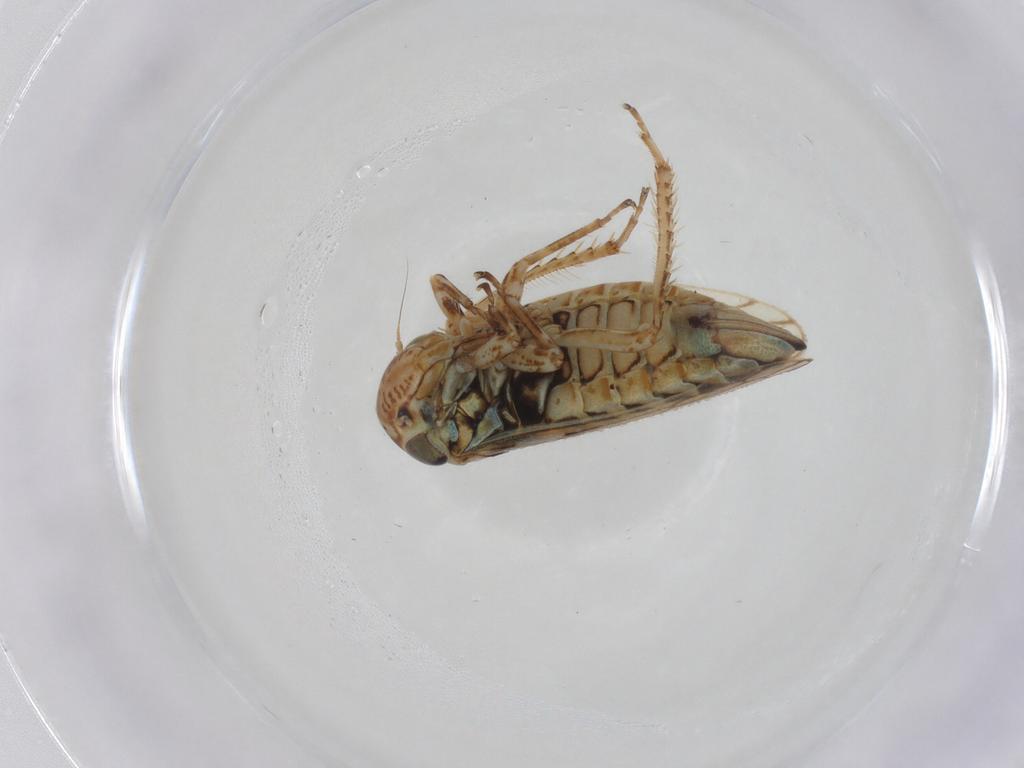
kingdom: Animalia
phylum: Arthropoda
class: Insecta
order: Hemiptera
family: Cicadellidae
